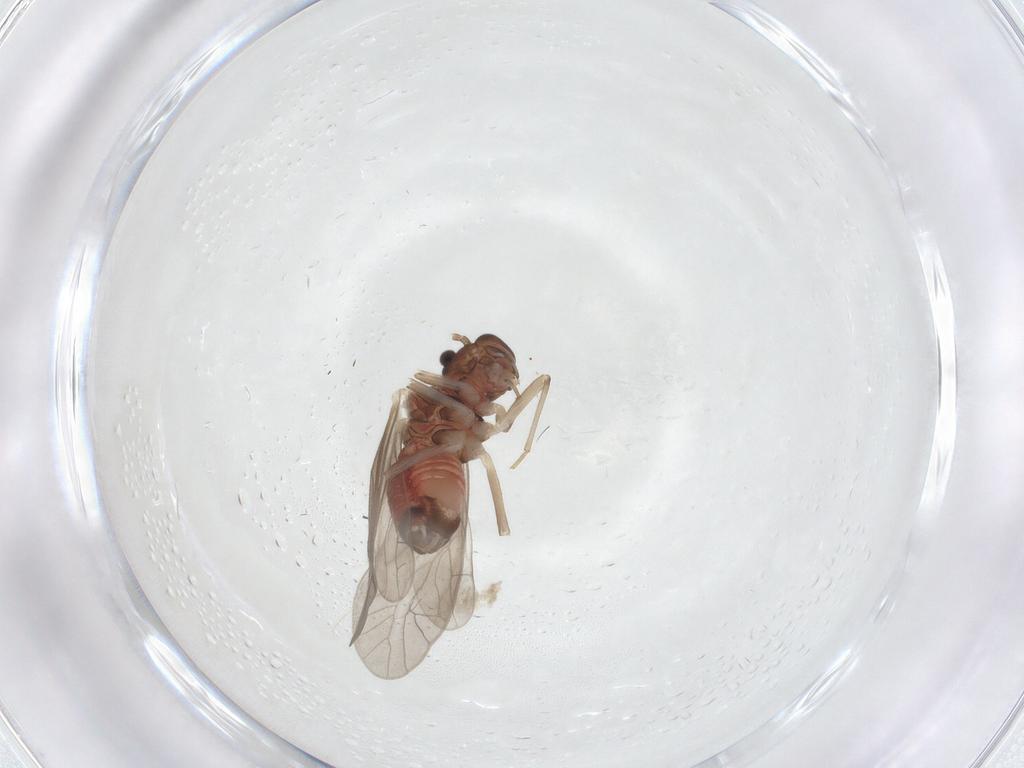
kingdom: Animalia
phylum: Arthropoda
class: Insecta
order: Psocodea
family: Caeciliusidae
